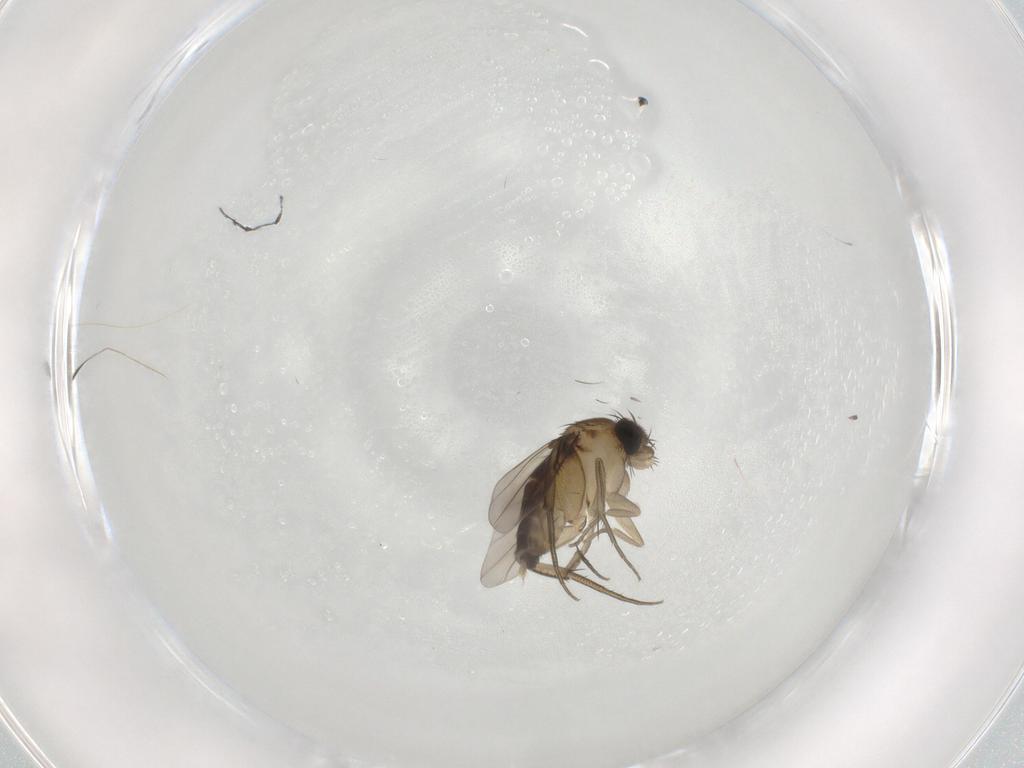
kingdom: Animalia
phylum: Arthropoda
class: Insecta
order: Diptera
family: Phoridae
